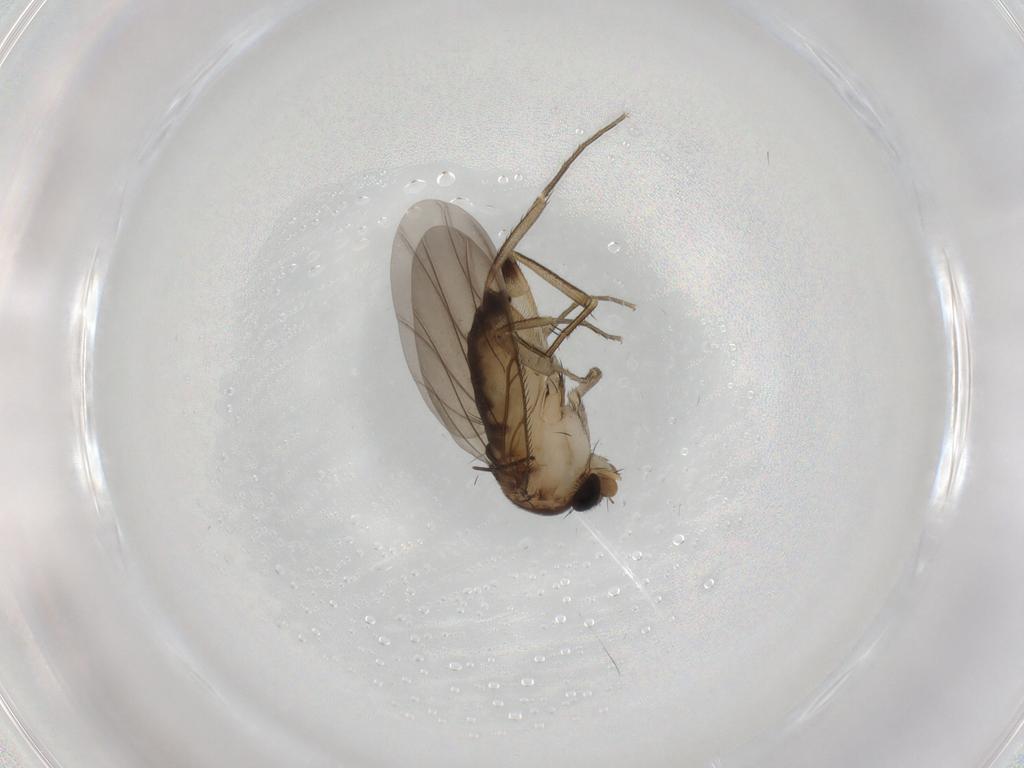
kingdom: Animalia
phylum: Arthropoda
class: Insecta
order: Diptera
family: Phoridae
